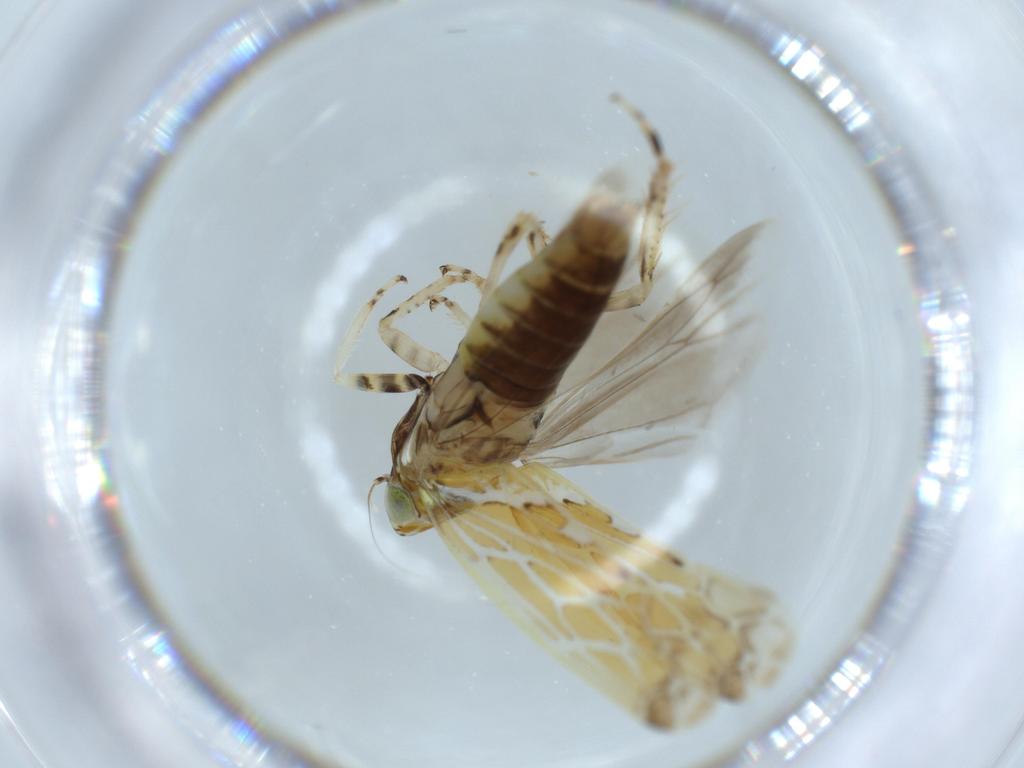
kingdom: Animalia
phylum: Arthropoda
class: Insecta
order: Hemiptera
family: Cicadellidae
